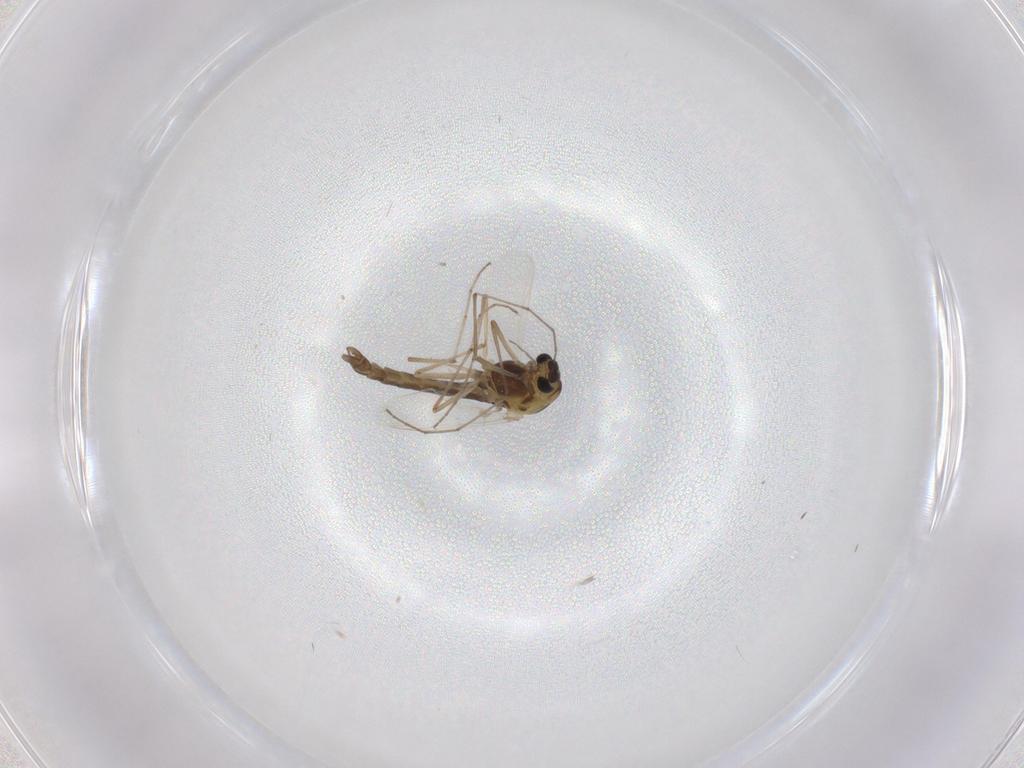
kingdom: Animalia
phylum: Arthropoda
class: Insecta
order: Diptera
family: Chironomidae
